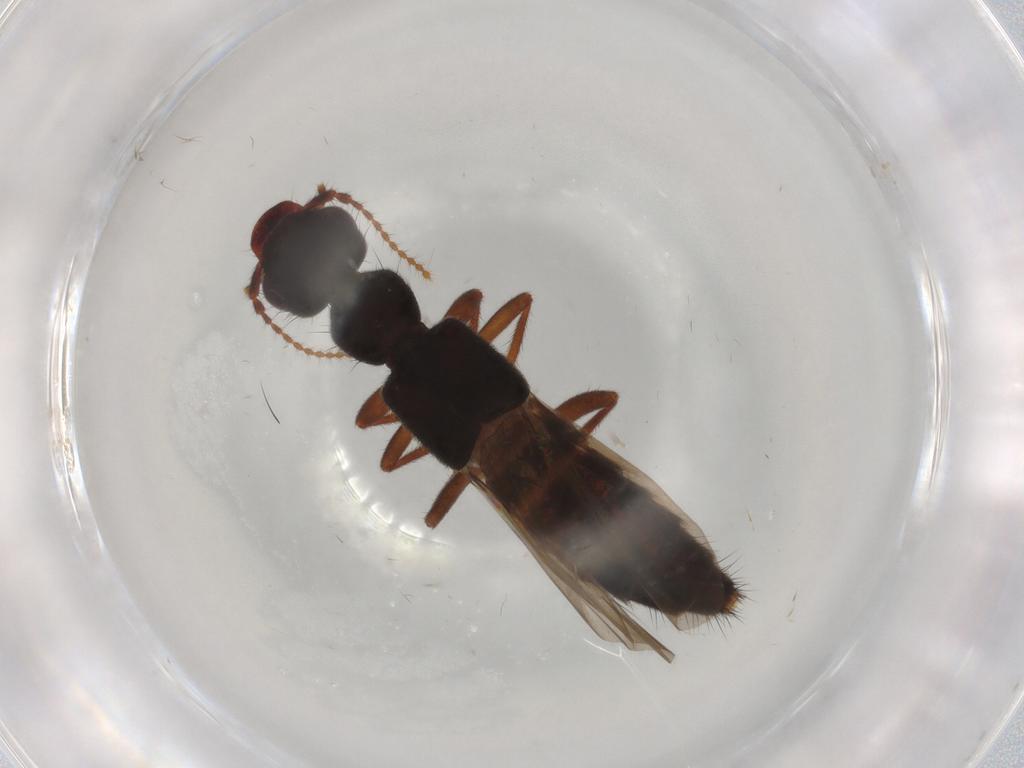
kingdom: Animalia
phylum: Arthropoda
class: Insecta
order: Coleoptera
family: Chrysomelidae
